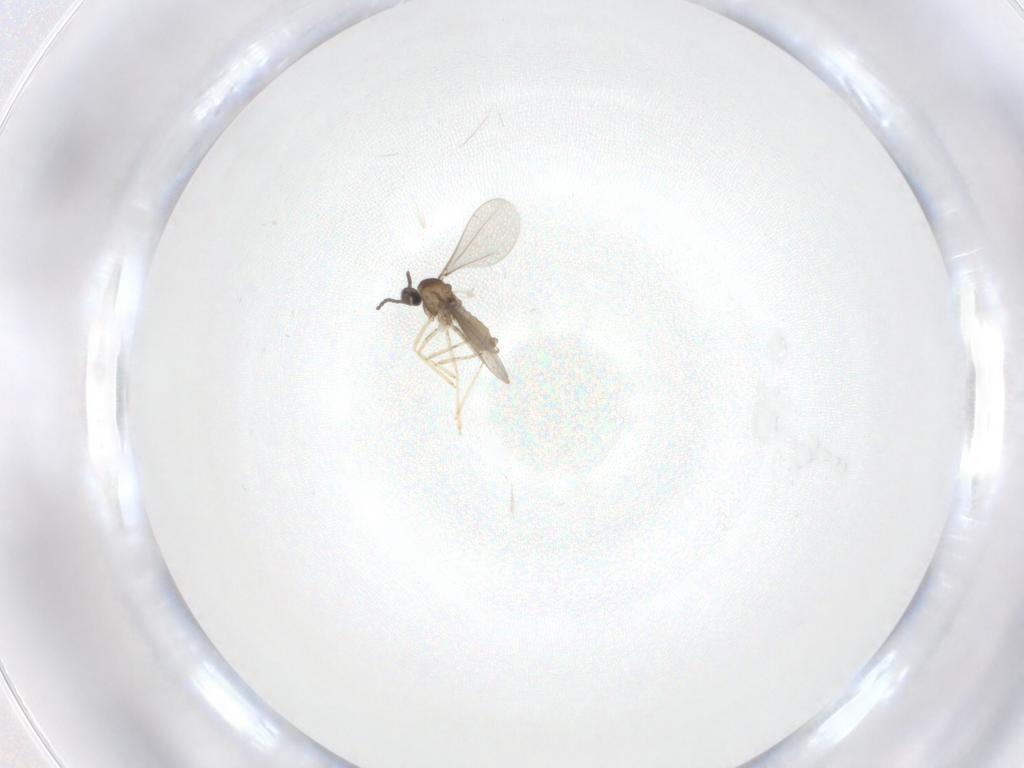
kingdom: Animalia
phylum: Arthropoda
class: Insecta
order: Diptera
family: Cecidomyiidae
